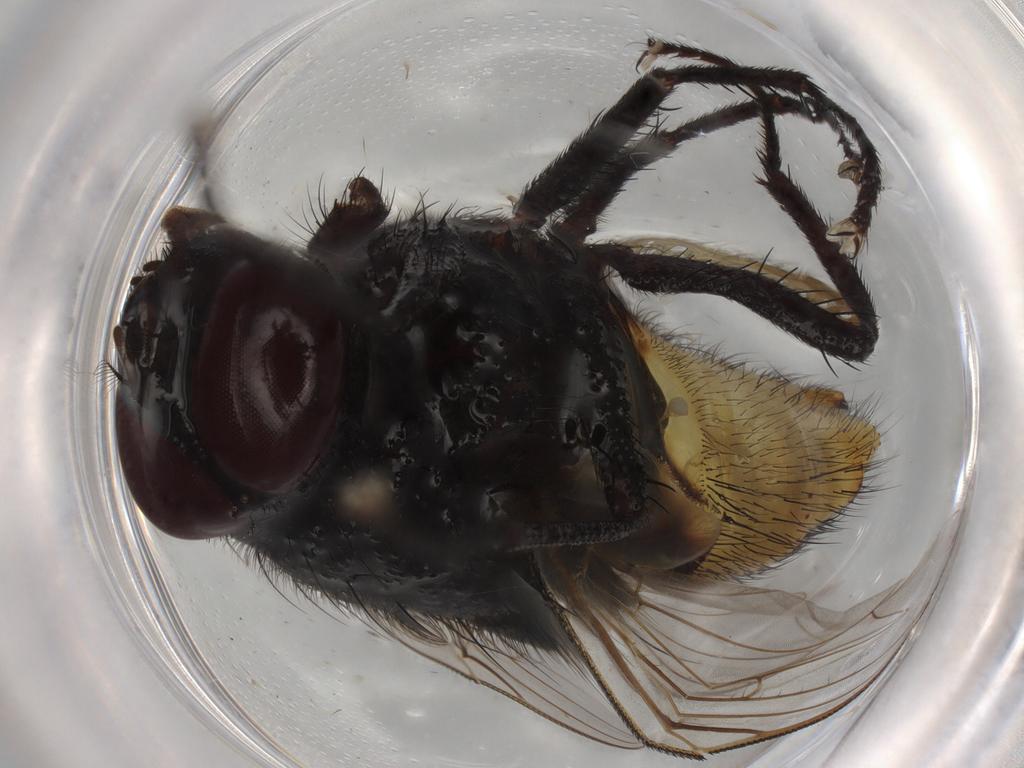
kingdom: Animalia
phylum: Arthropoda
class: Insecta
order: Diptera
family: Muscidae
